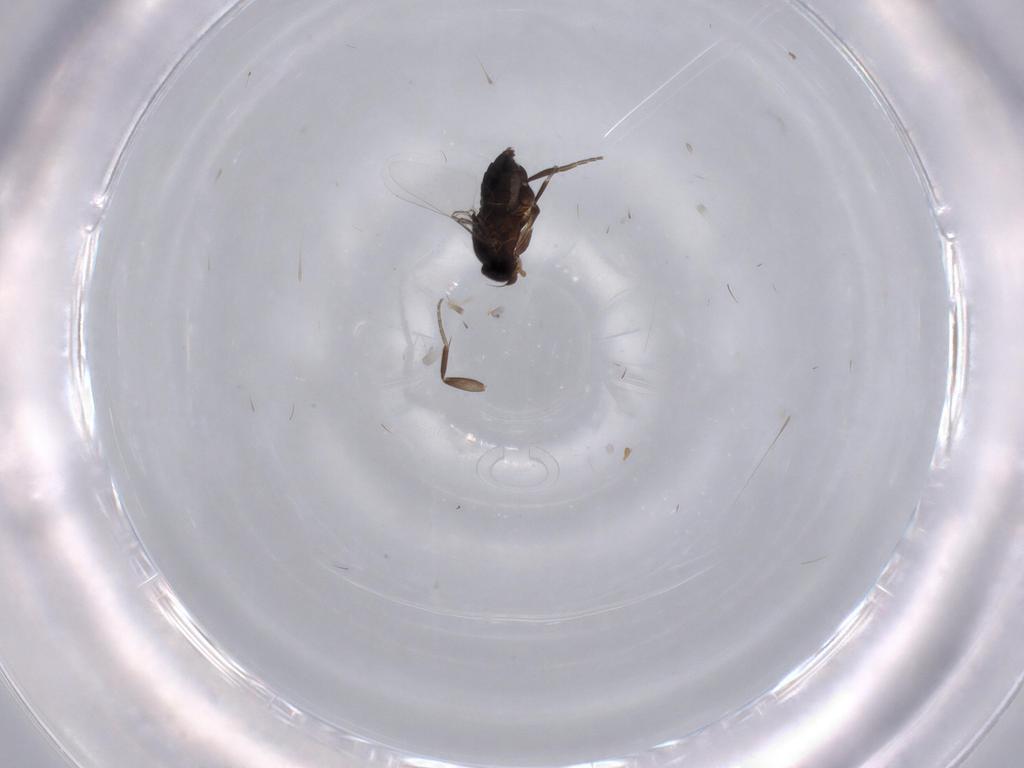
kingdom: Animalia
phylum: Arthropoda
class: Insecta
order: Diptera
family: Phoridae
